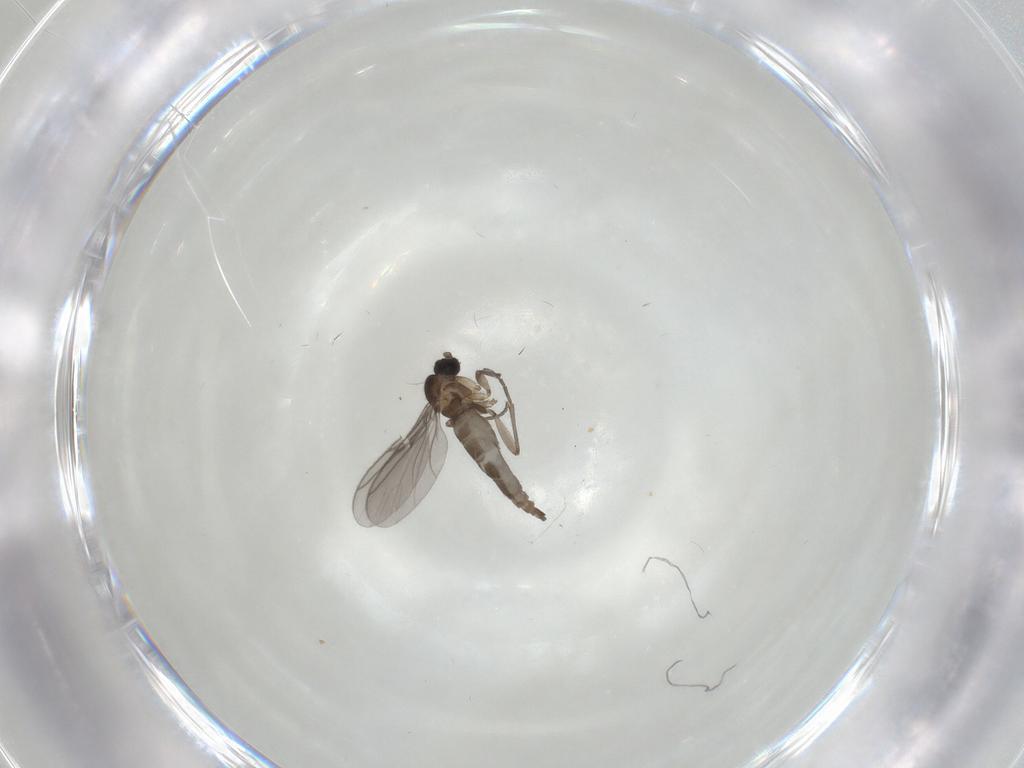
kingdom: Animalia
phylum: Arthropoda
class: Insecta
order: Diptera
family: Chironomidae
